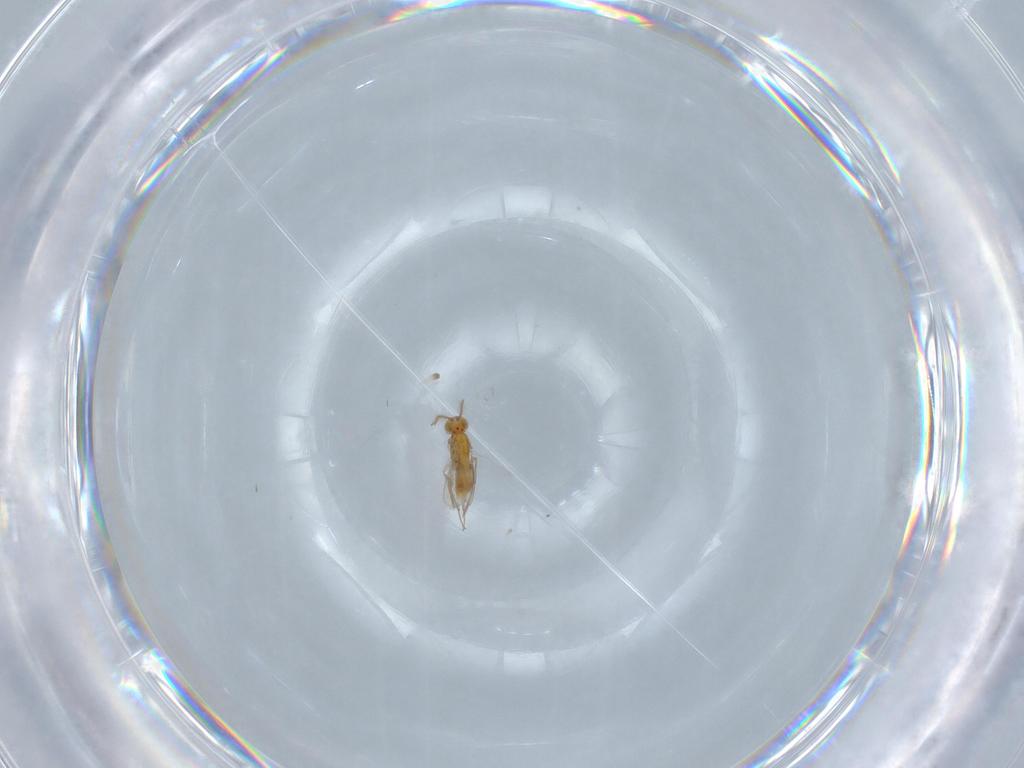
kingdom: Animalia
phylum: Arthropoda
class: Insecta
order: Hymenoptera
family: Aphelinidae
